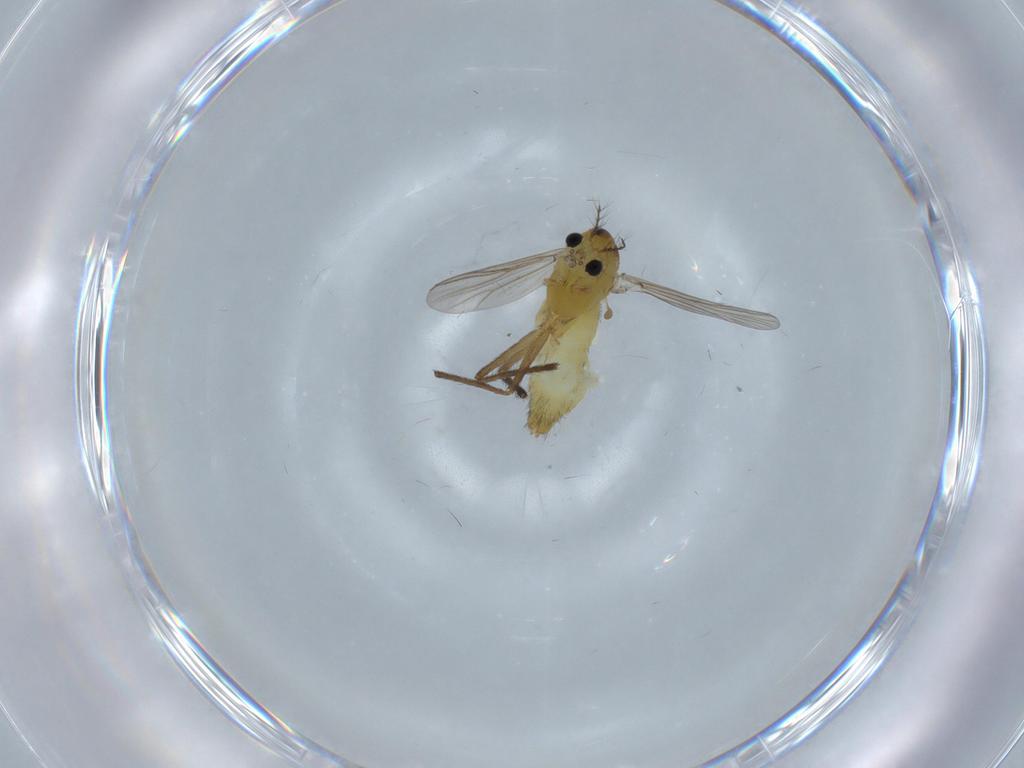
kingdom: Animalia
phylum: Arthropoda
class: Insecta
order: Diptera
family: Chironomidae
